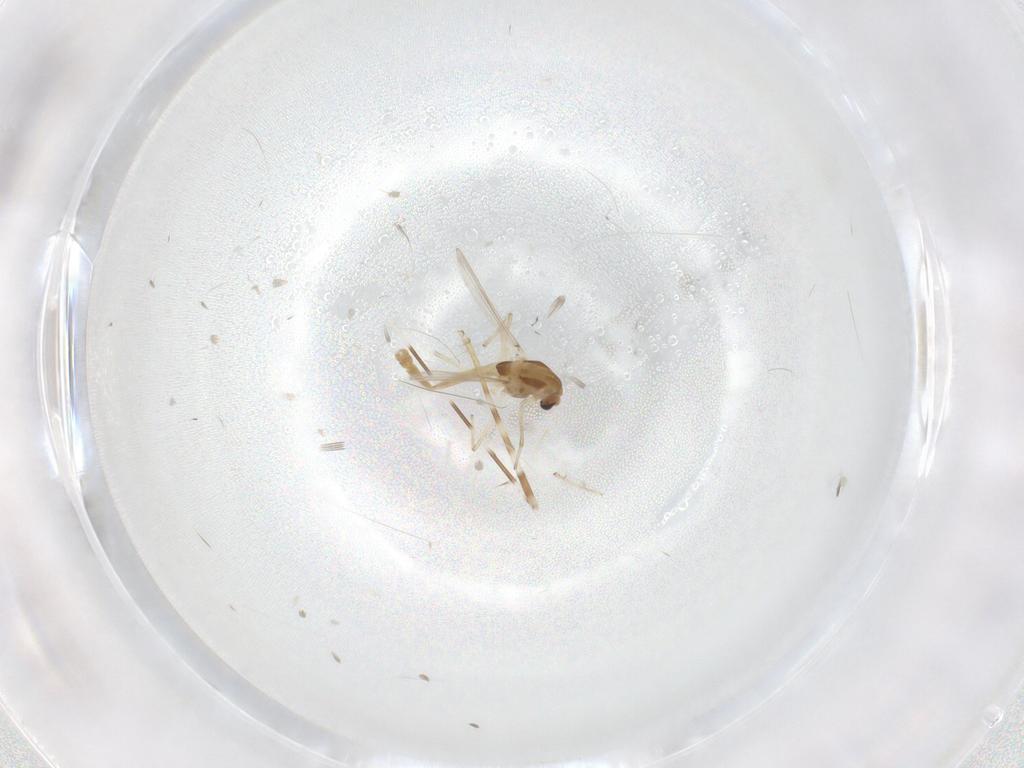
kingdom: Animalia
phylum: Arthropoda
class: Insecta
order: Diptera
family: Chironomidae
